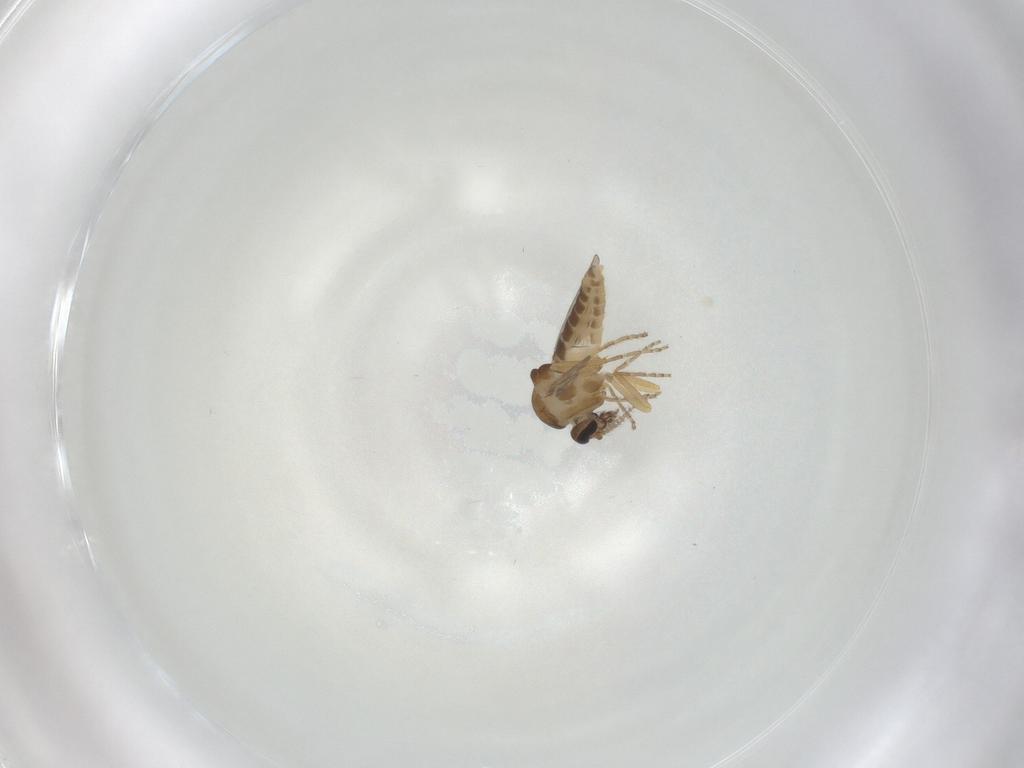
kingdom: Animalia
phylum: Arthropoda
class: Insecta
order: Diptera
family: Ceratopogonidae
